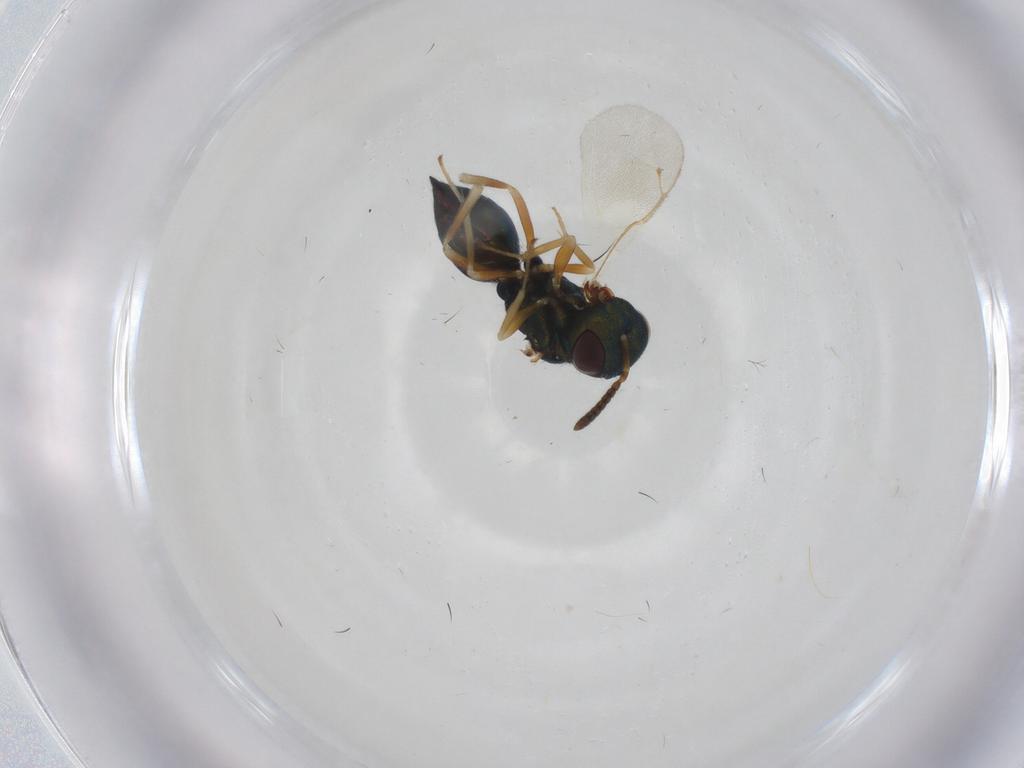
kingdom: Animalia
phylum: Arthropoda
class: Insecta
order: Hymenoptera
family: Pteromalidae
